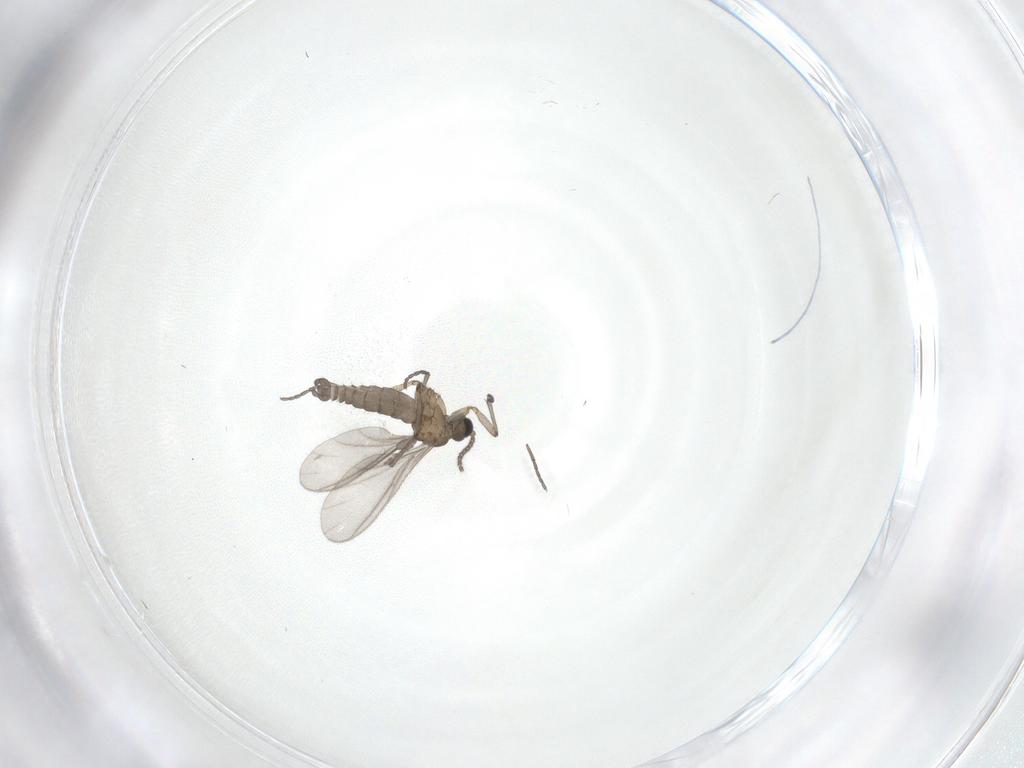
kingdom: Animalia
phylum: Arthropoda
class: Insecta
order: Diptera
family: Sciaridae
